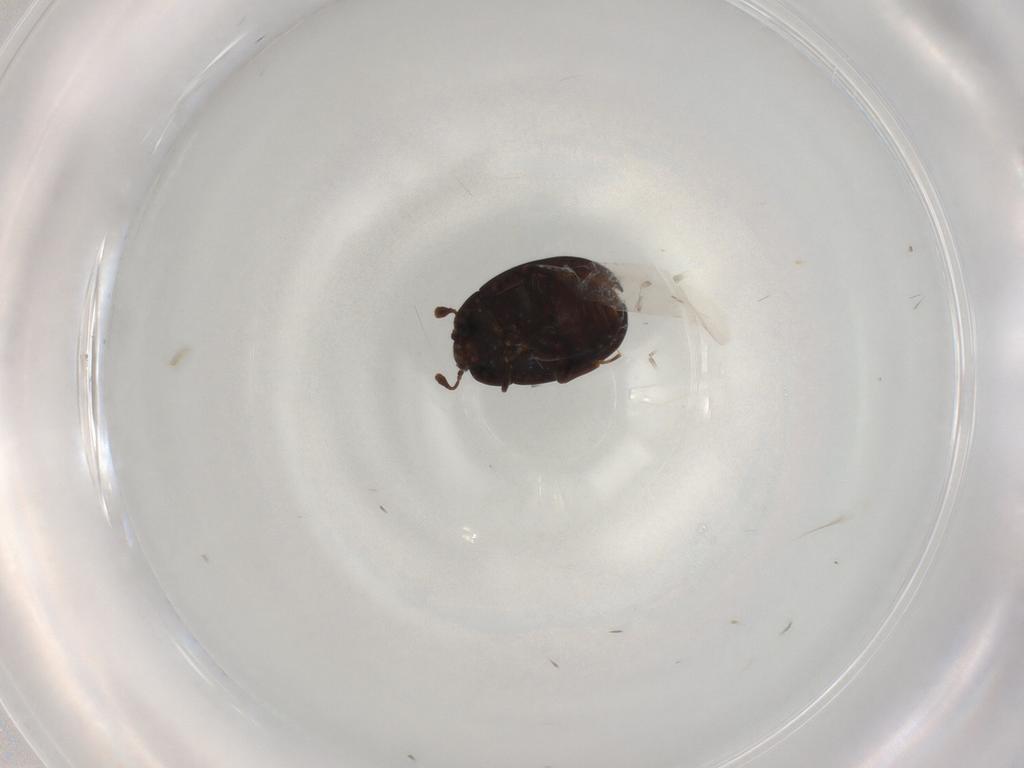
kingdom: Animalia
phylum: Arthropoda
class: Insecta
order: Coleoptera
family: Discolomatidae
